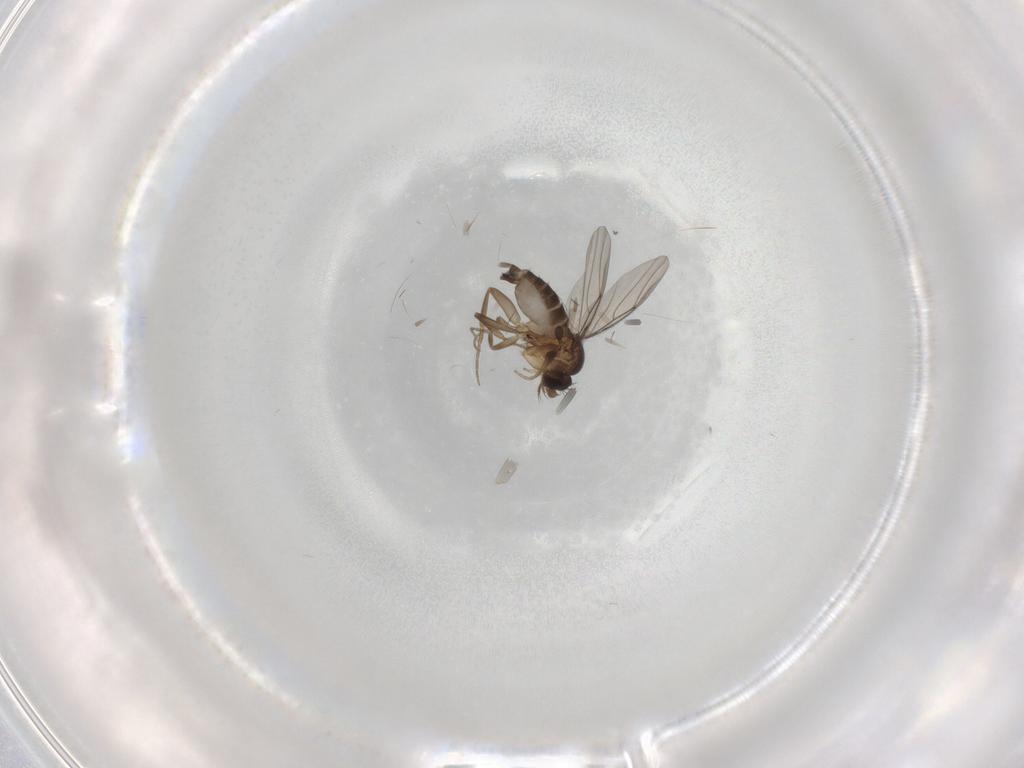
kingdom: Animalia
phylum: Arthropoda
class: Insecta
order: Diptera
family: Phoridae
